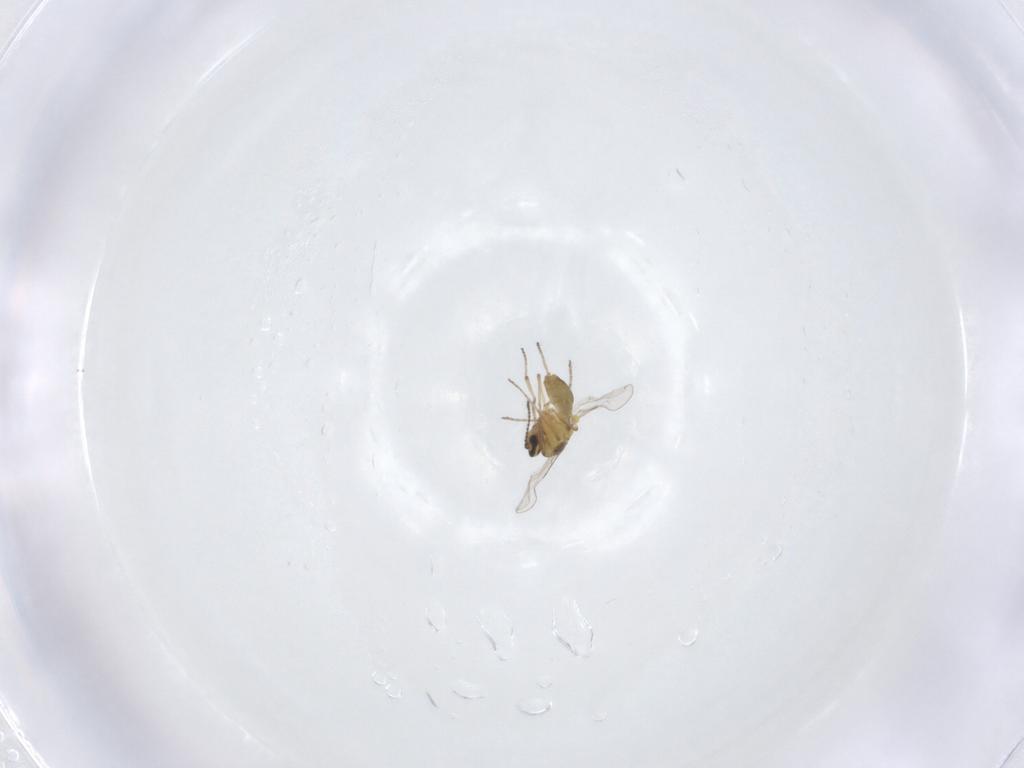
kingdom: Animalia
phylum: Arthropoda
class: Insecta
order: Diptera
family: Ceratopogonidae
